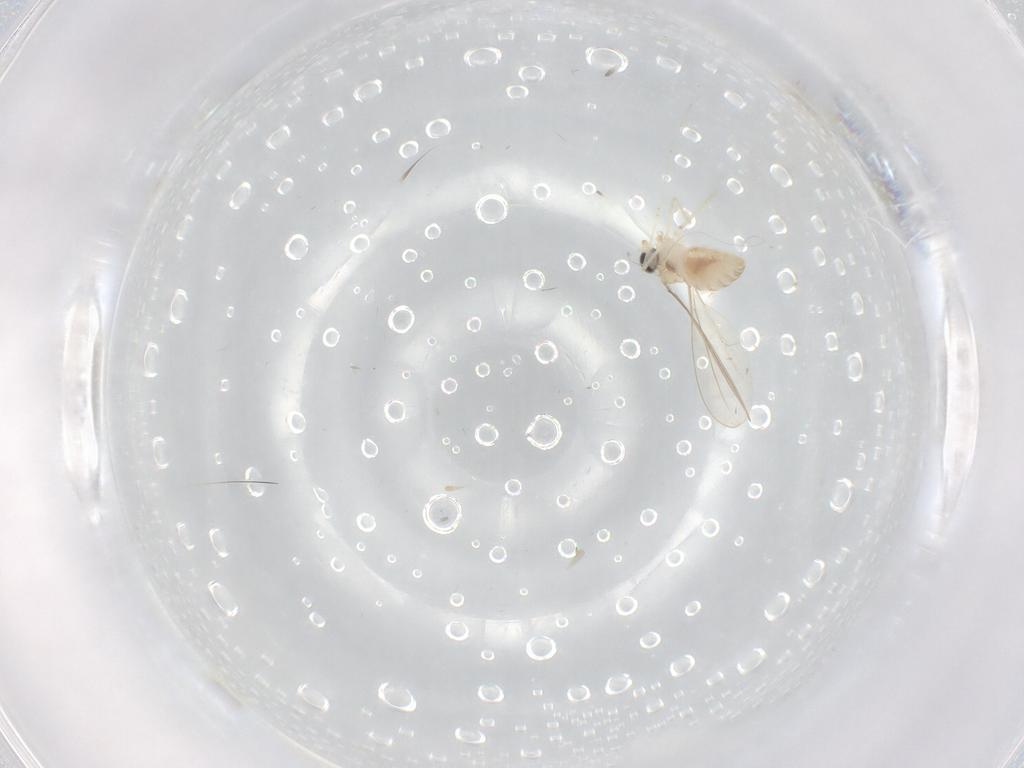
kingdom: Animalia
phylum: Arthropoda
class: Insecta
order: Diptera
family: Cecidomyiidae
